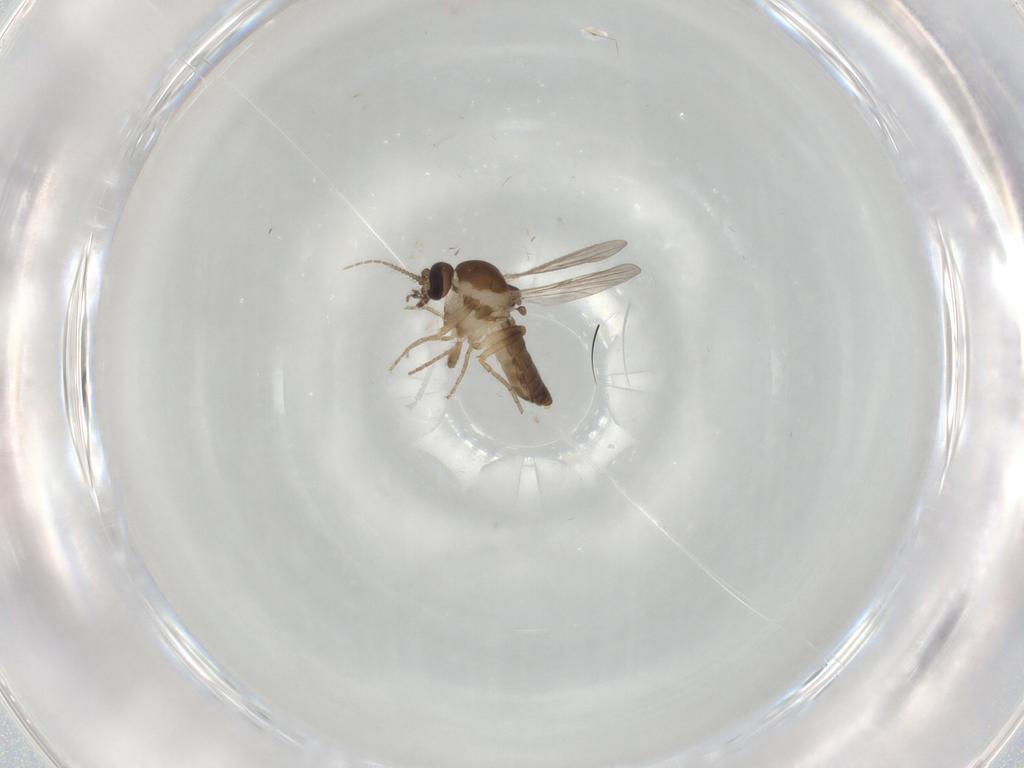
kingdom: Animalia
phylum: Arthropoda
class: Insecta
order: Diptera
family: Ceratopogonidae
